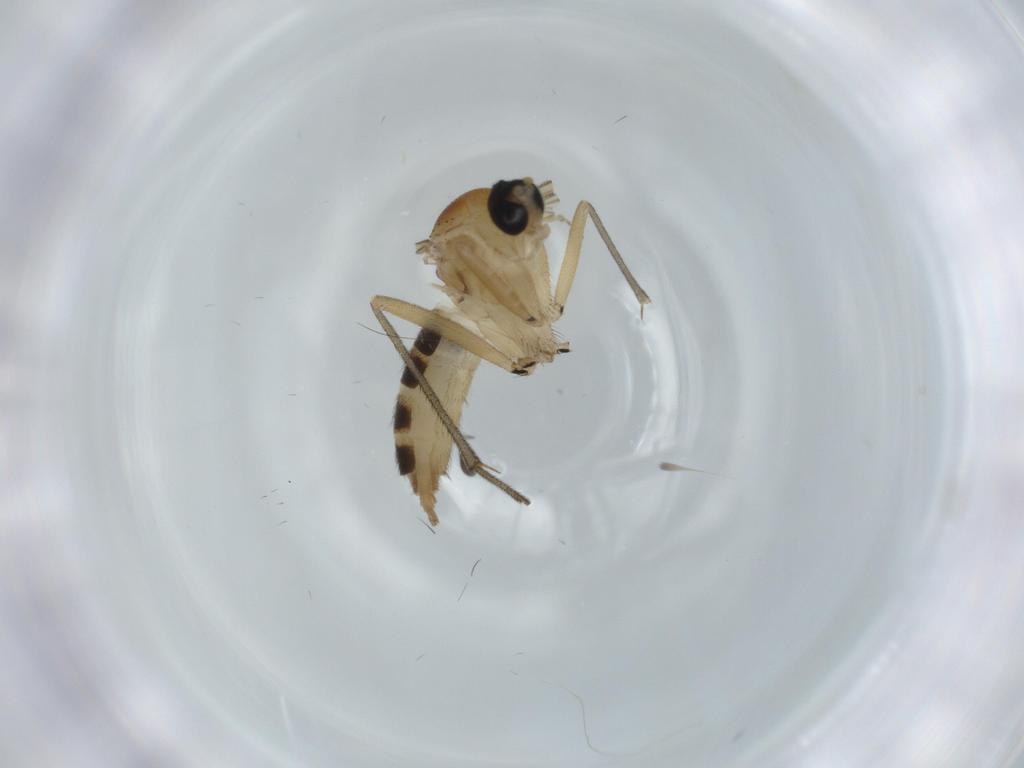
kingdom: Animalia
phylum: Arthropoda
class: Insecta
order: Diptera
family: Sciaridae
